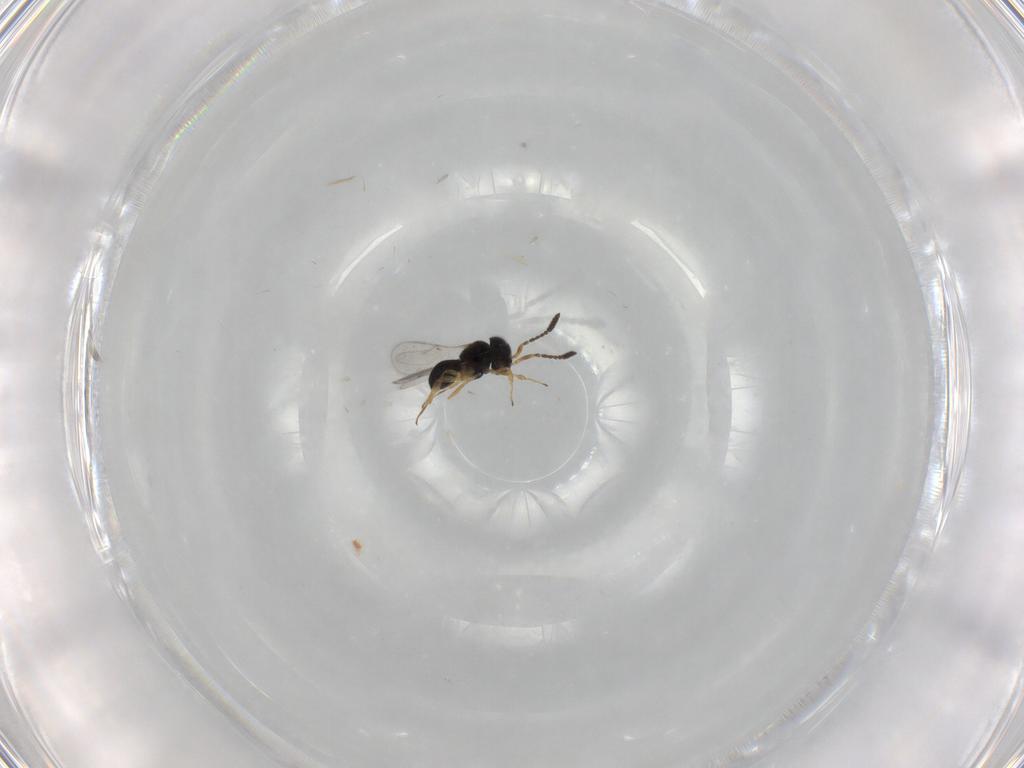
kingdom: Animalia
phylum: Arthropoda
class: Insecta
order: Hymenoptera
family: Scelionidae
